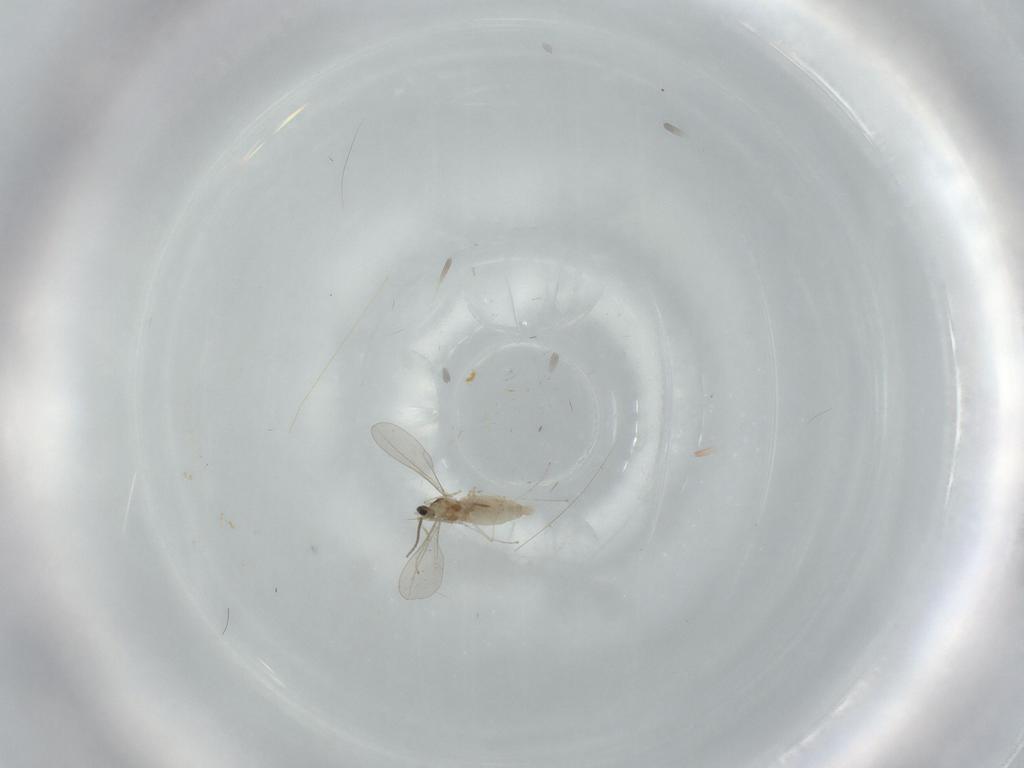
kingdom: Animalia
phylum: Arthropoda
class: Insecta
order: Diptera
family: Cecidomyiidae
